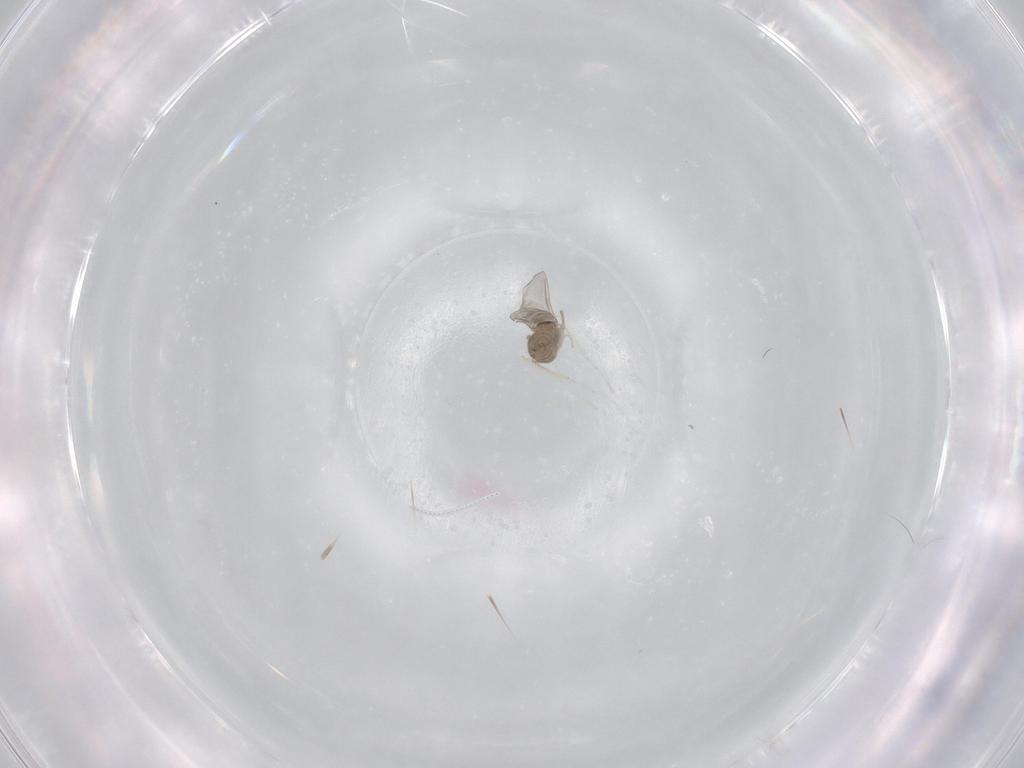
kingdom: Animalia
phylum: Arthropoda
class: Insecta
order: Diptera
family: Cecidomyiidae
